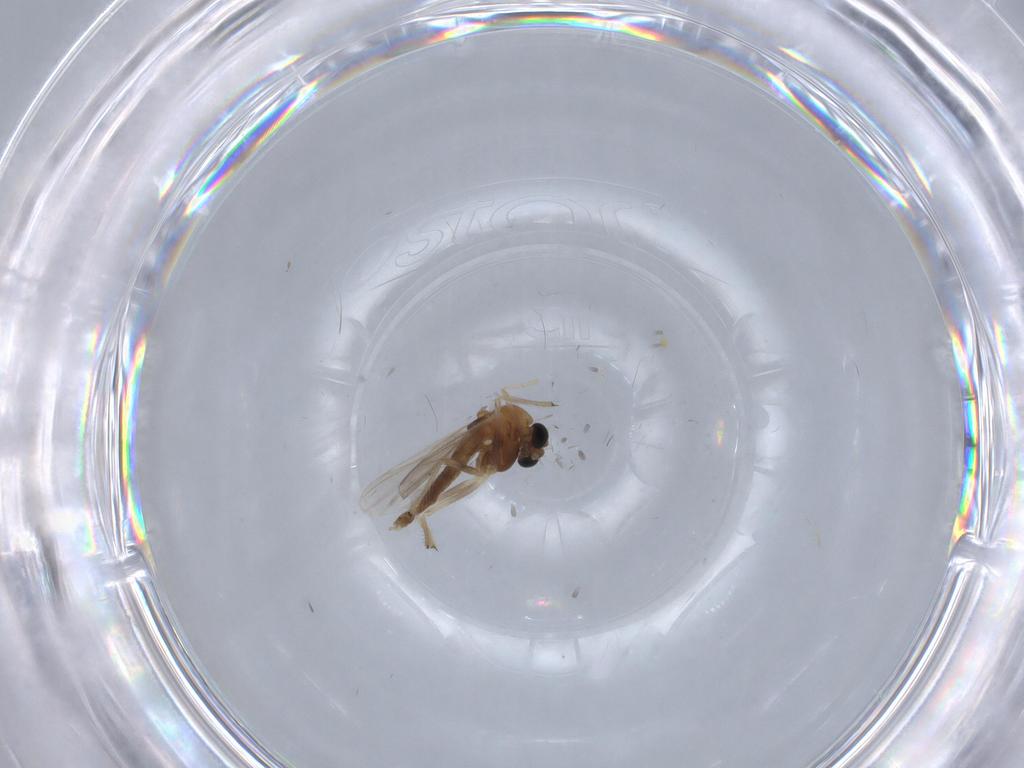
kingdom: Animalia
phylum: Arthropoda
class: Insecta
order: Diptera
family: Chironomidae
